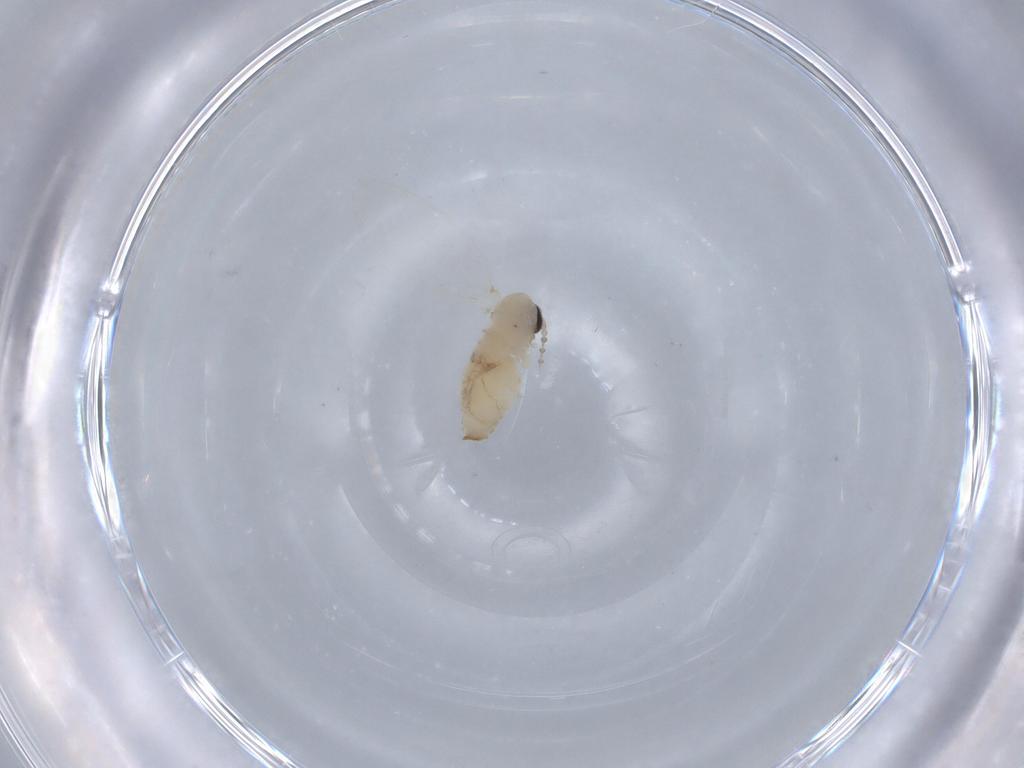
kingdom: Animalia
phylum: Arthropoda
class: Insecta
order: Diptera
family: Psychodidae
